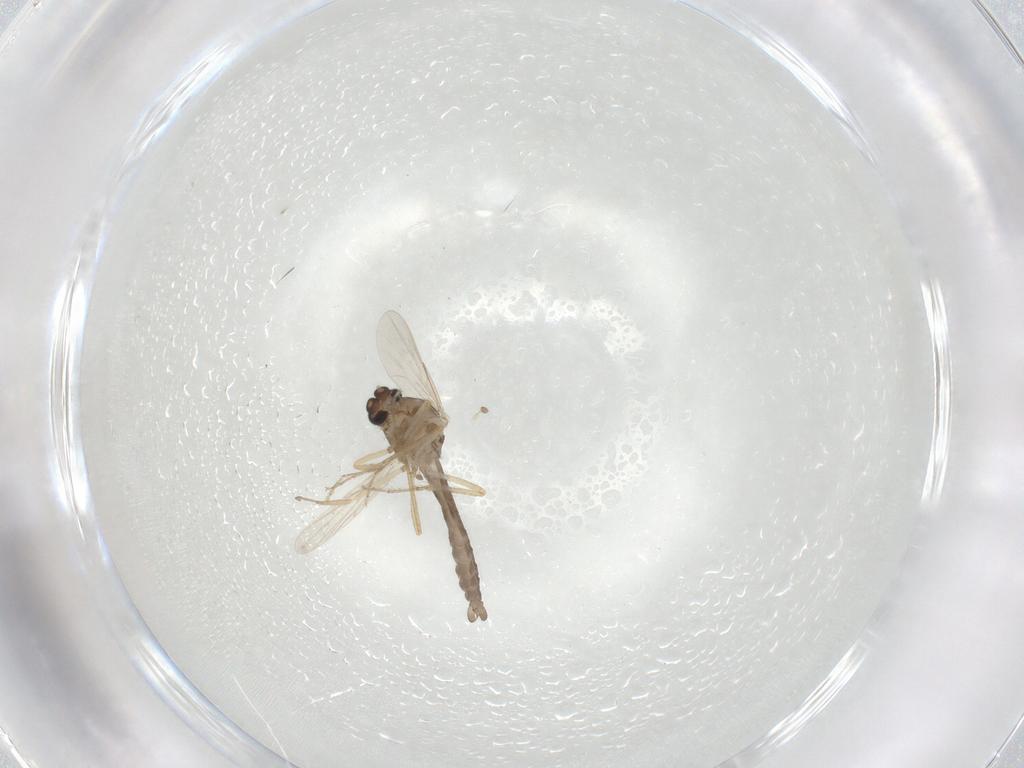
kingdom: Animalia
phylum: Arthropoda
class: Insecta
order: Diptera
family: Ceratopogonidae
